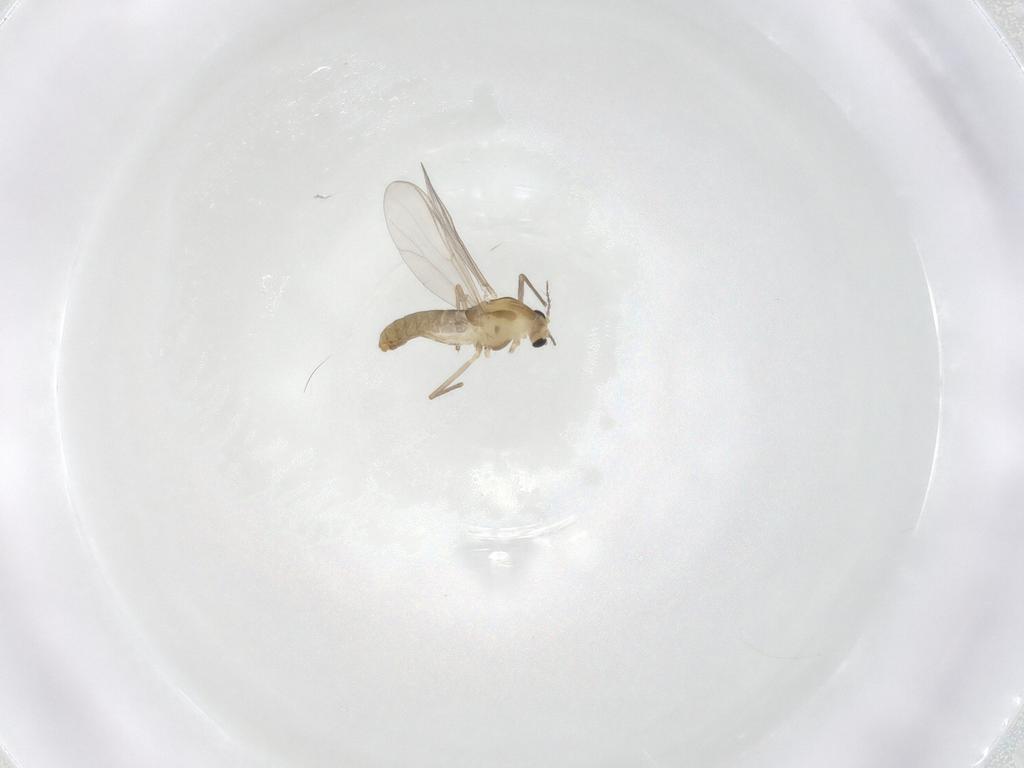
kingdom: Animalia
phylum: Arthropoda
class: Insecta
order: Diptera
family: Chironomidae
